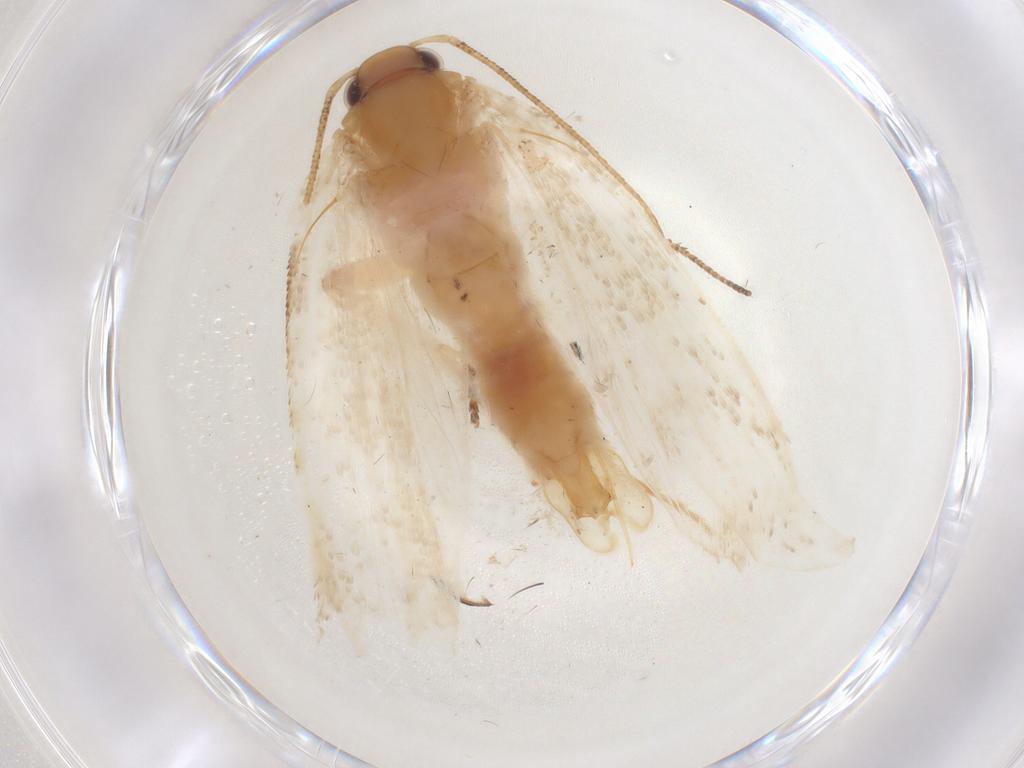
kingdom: Animalia
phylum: Arthropoda
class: Insecta
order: Lepidoptera
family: Gelechiidae
